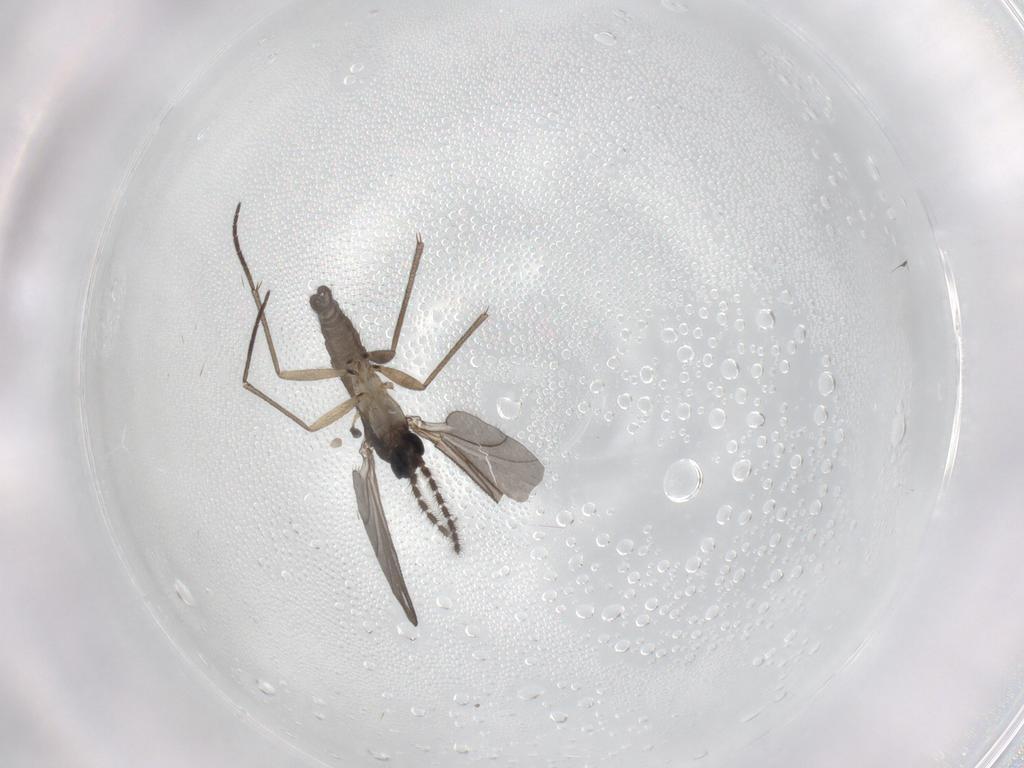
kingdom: Animalia
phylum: Arthropoda
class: Insecta
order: Diptera
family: Sciaridae
